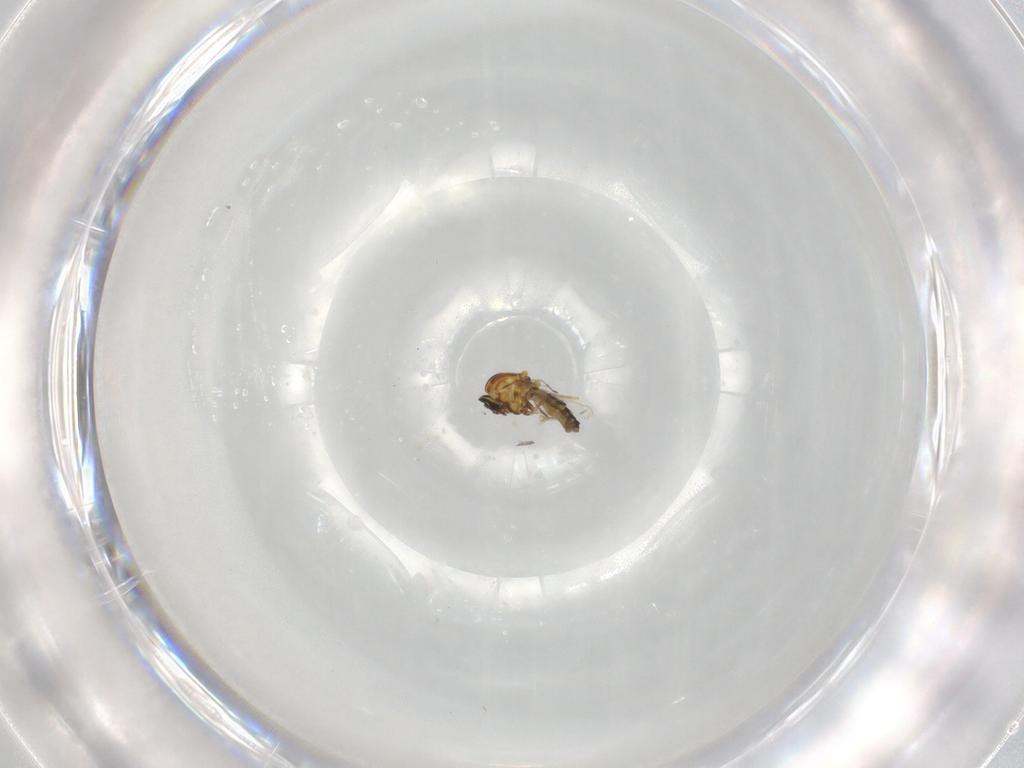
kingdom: Animalia
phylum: Arthropoda
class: Insecta
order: Diptera
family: Ceratopogonidae
